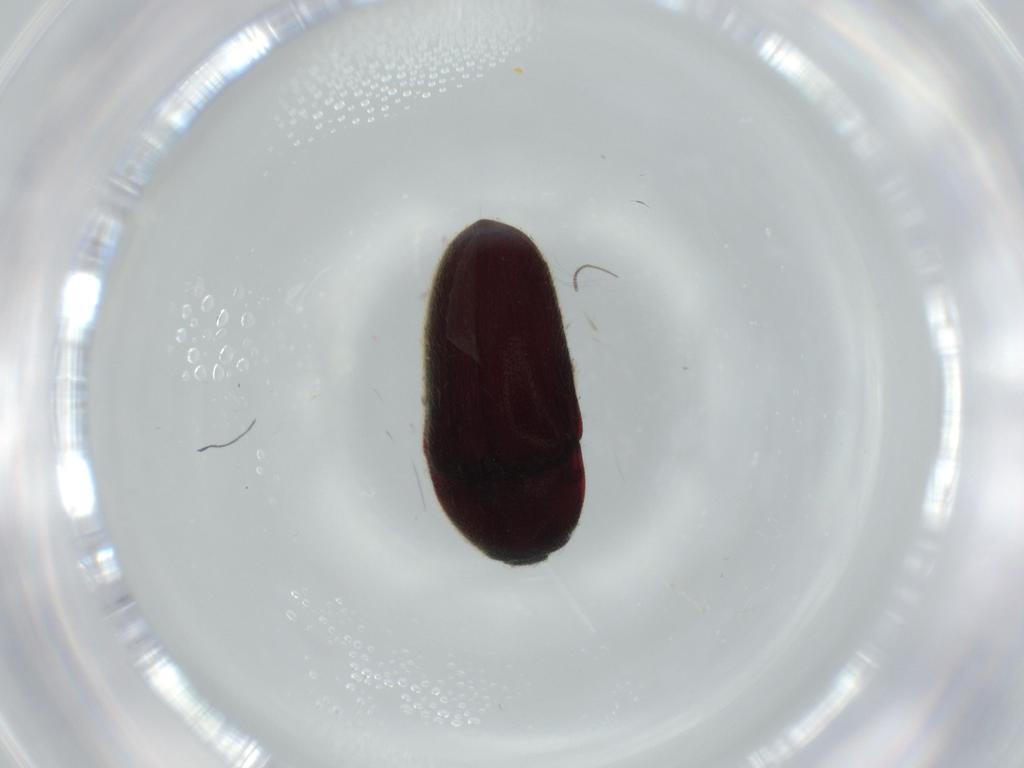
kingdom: Animalia
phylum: Arthropoda
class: Insecta
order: Coleoptera
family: Throscidae
